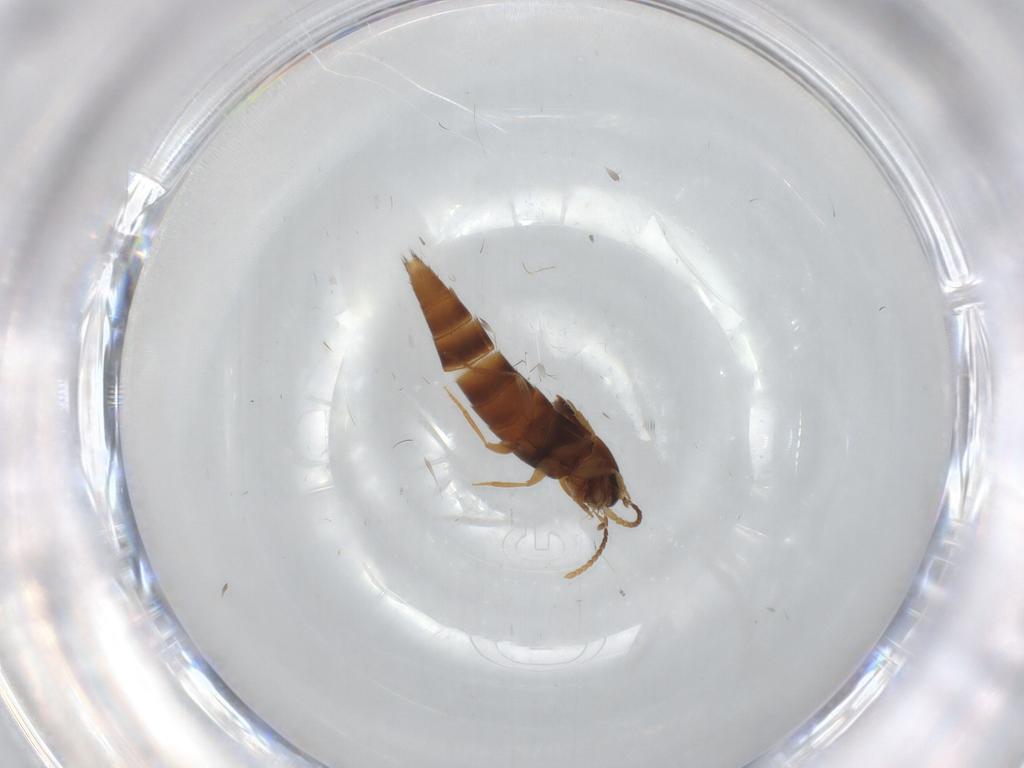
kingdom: Animalia
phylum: Arthropoda
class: Insecta
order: Coleoptera
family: Staphylinidae
